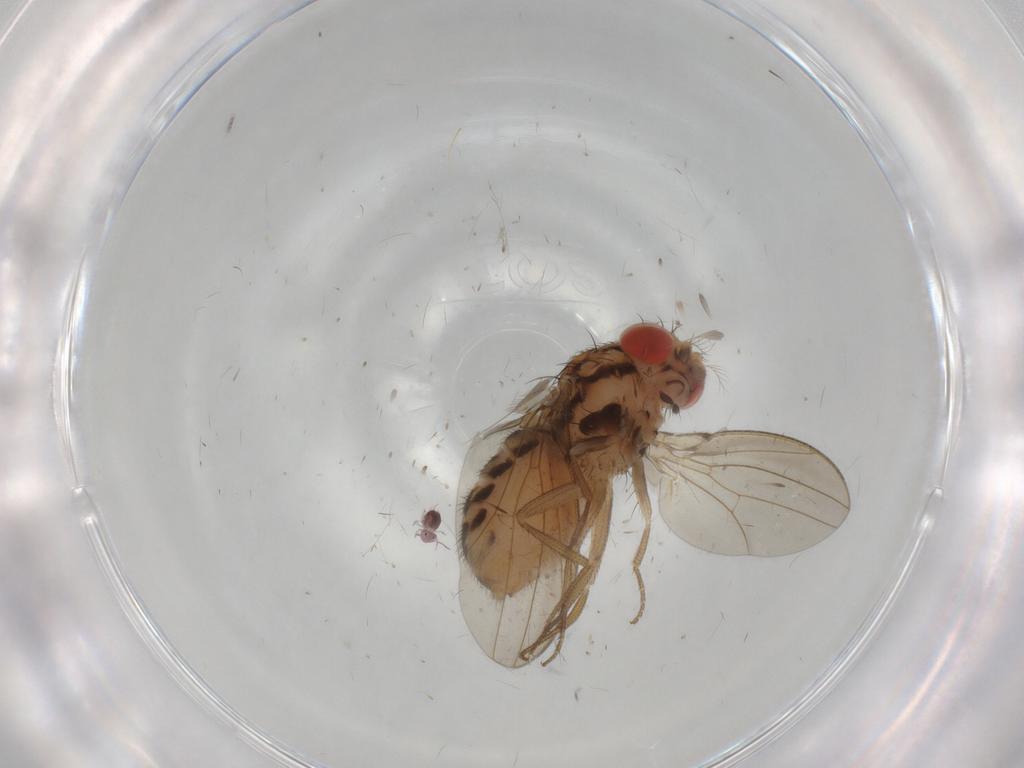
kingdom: Animalia
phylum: Arthropoda
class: Insecta
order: Diptera
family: Drosophilidae
